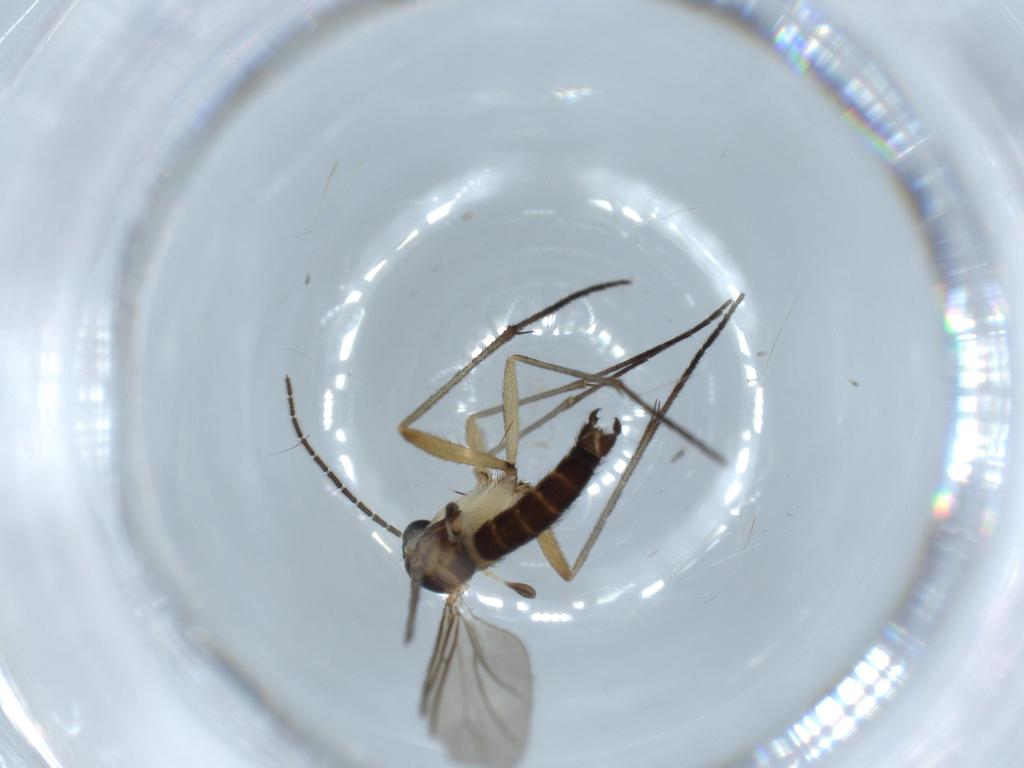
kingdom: Animalia
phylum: Arthropoda
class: Insecta
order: Diptera
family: Sciaridae
